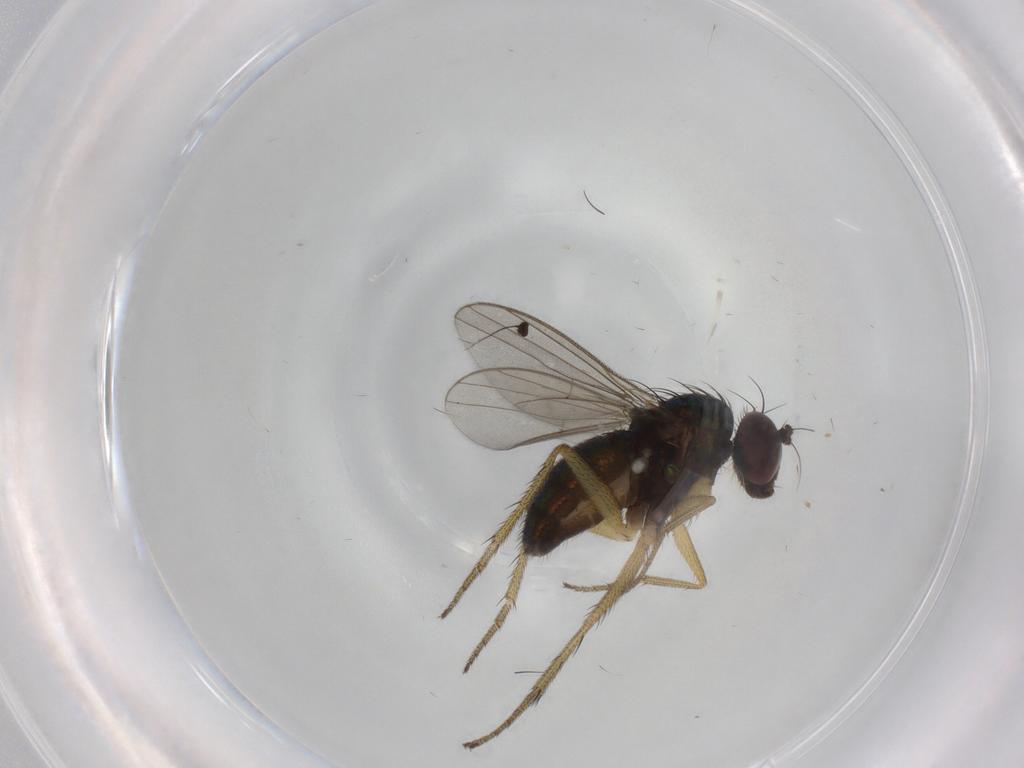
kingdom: Animalia
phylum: Arthropoda
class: Insecta
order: Diptera
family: Dolichopodidae
